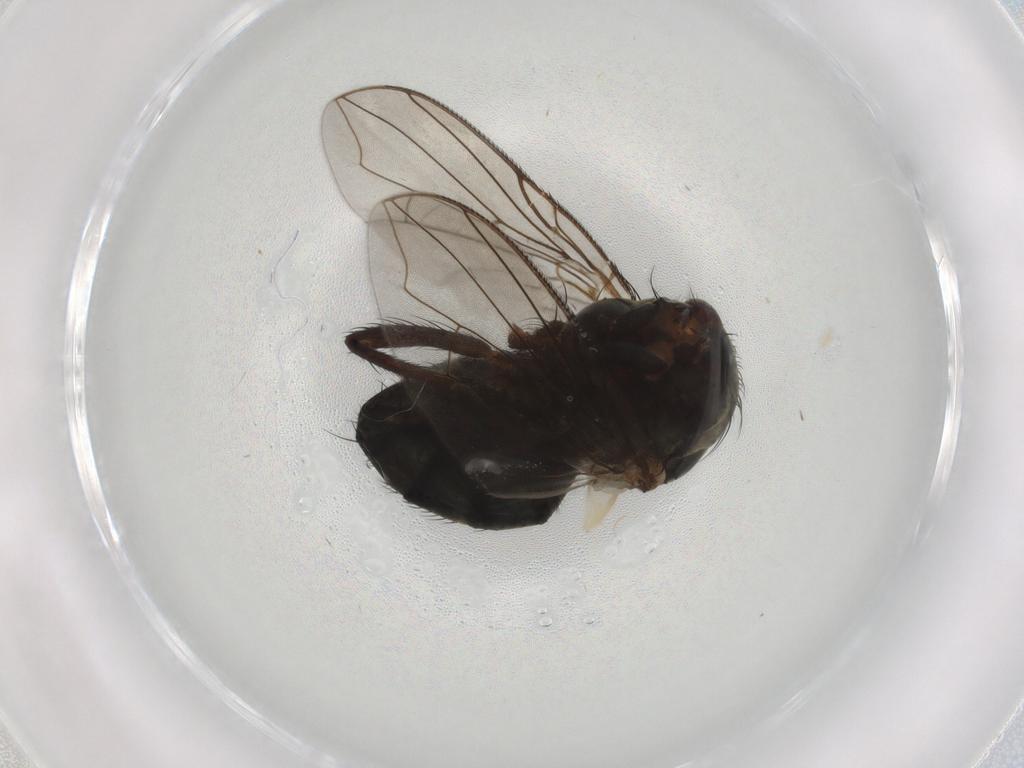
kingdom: Animalia
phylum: Arthropoda
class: Insecta
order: Diptera
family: Sarcophagidae
